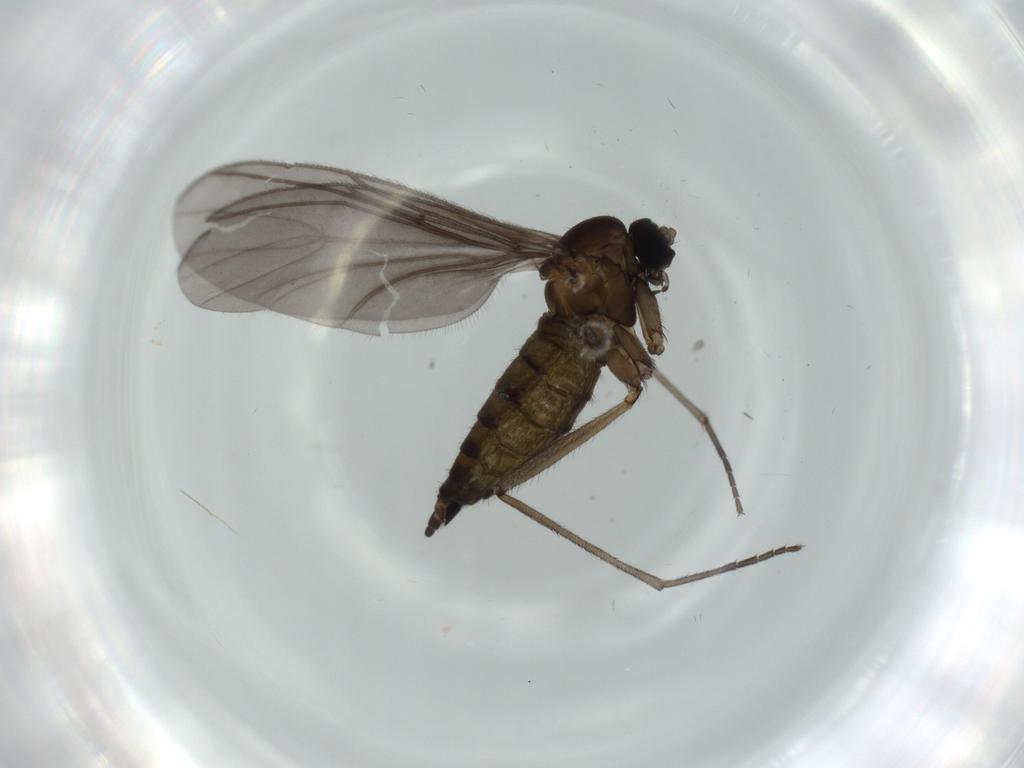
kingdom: Animalia
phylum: Arthropoda
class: Insecta
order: Diptera
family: Sciaridae
